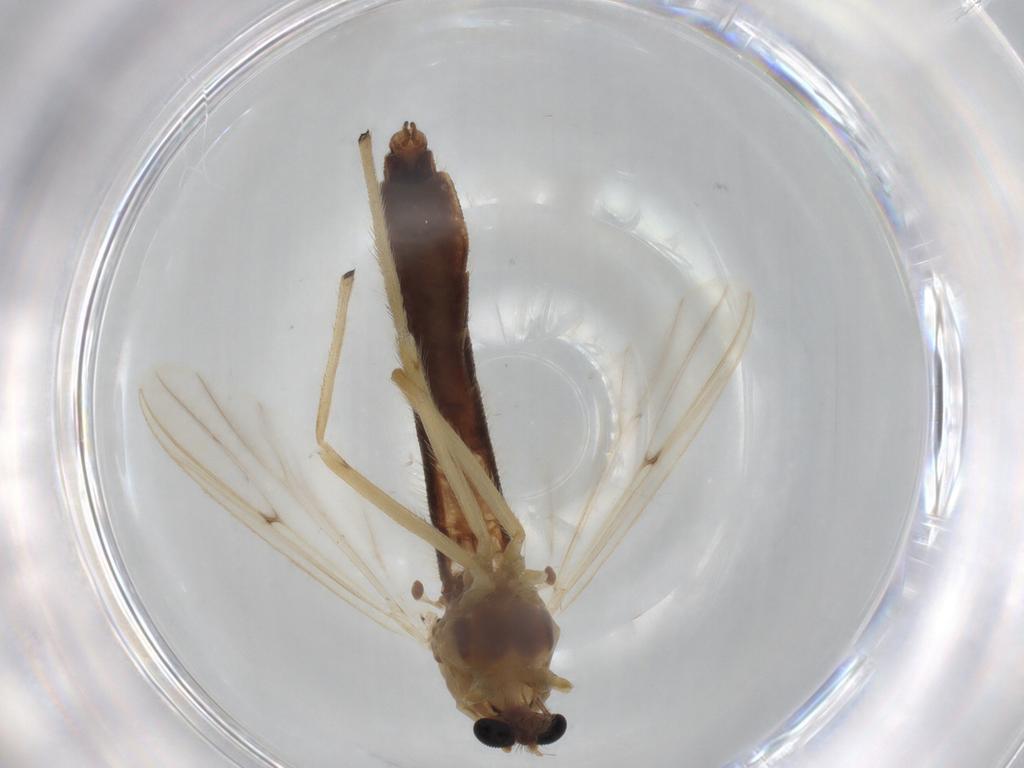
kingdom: Animalia
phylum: Arthropoda
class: Insecta
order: Diptera
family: Chironomidae
